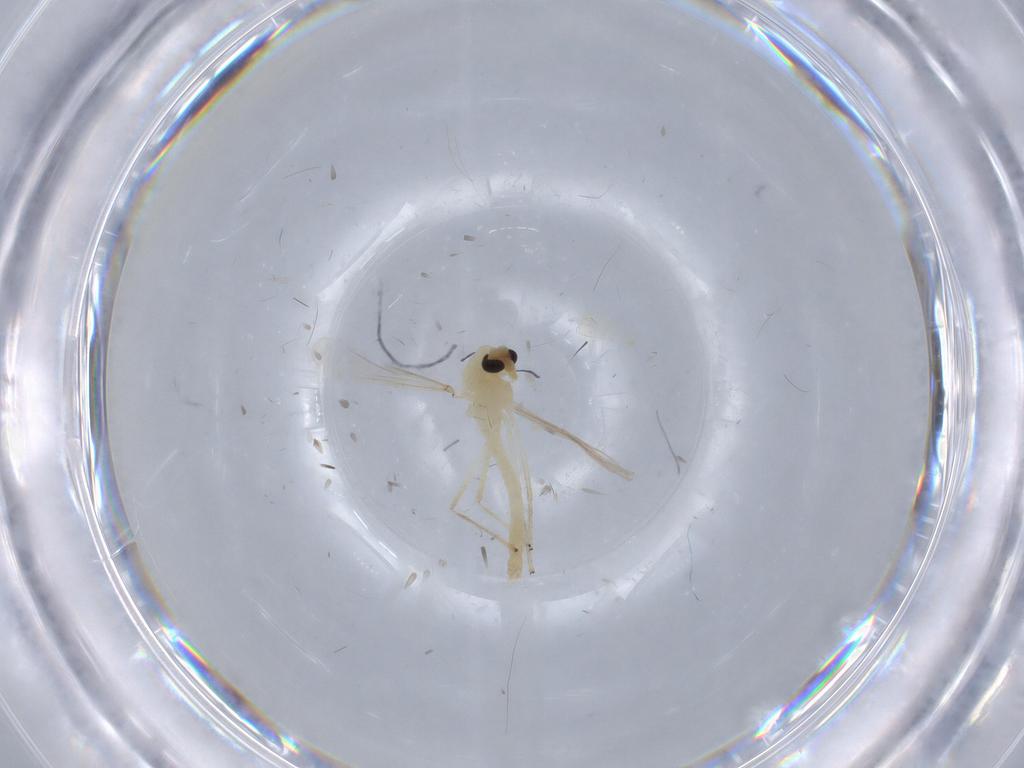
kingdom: Animalia
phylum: Arthropoda
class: Insecta
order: Diptera
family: Chironomidae
